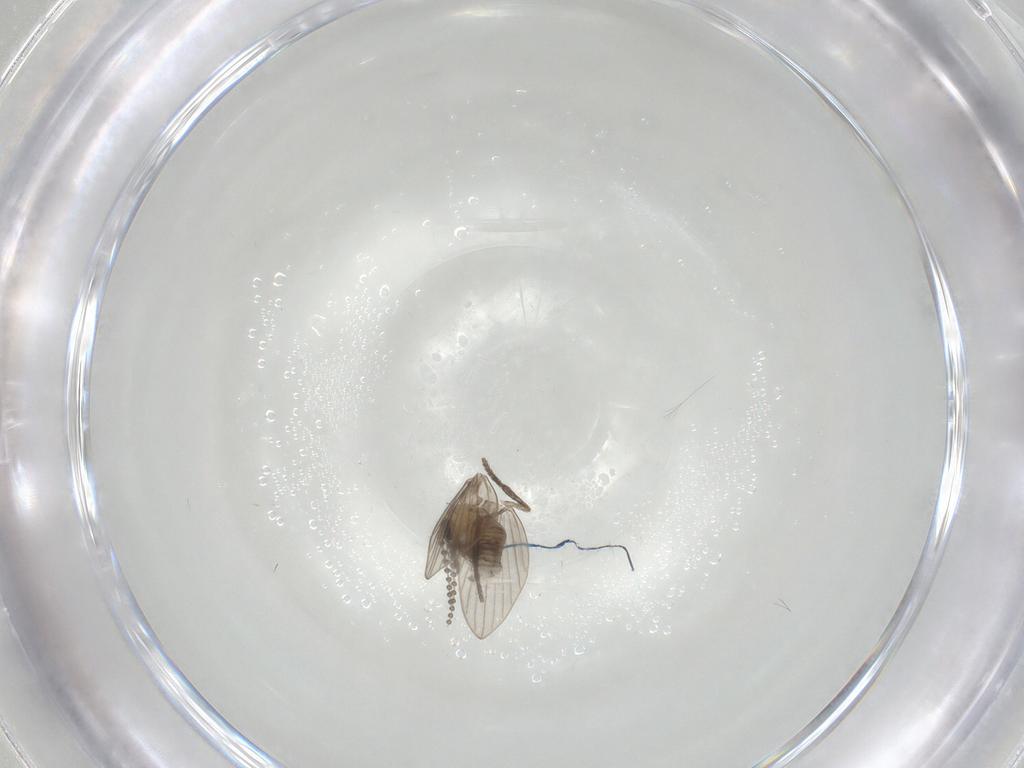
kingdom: Animalia
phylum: Arthropoda
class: Insecta
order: Diptera
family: Psychodidae
